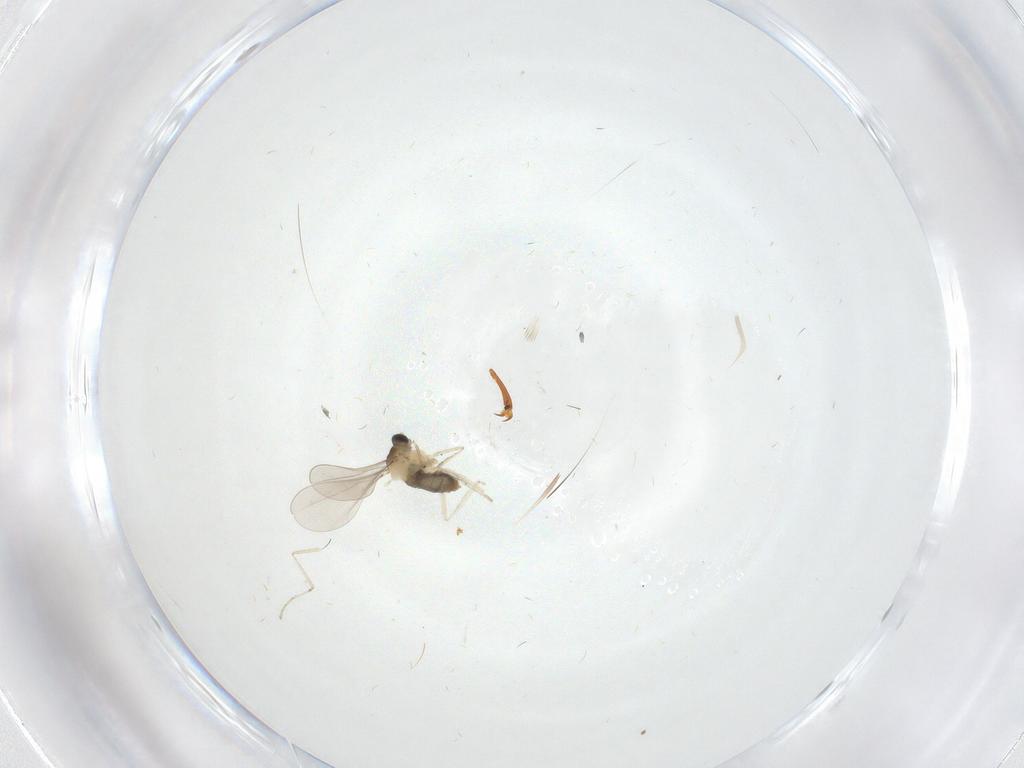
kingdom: Animalia
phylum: Arthropoda
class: Insecta
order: Diptera
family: Cecidomyiidae
